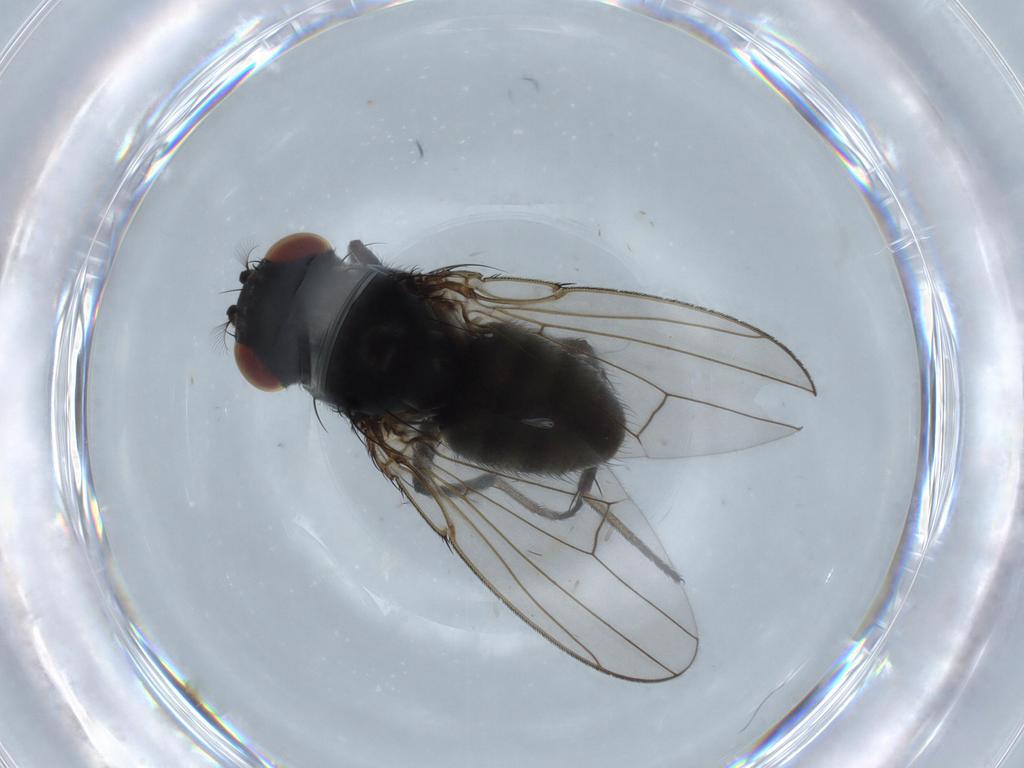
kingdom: Animalia
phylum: Arthropoda
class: Insecta
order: Diptera
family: Ephydridae
